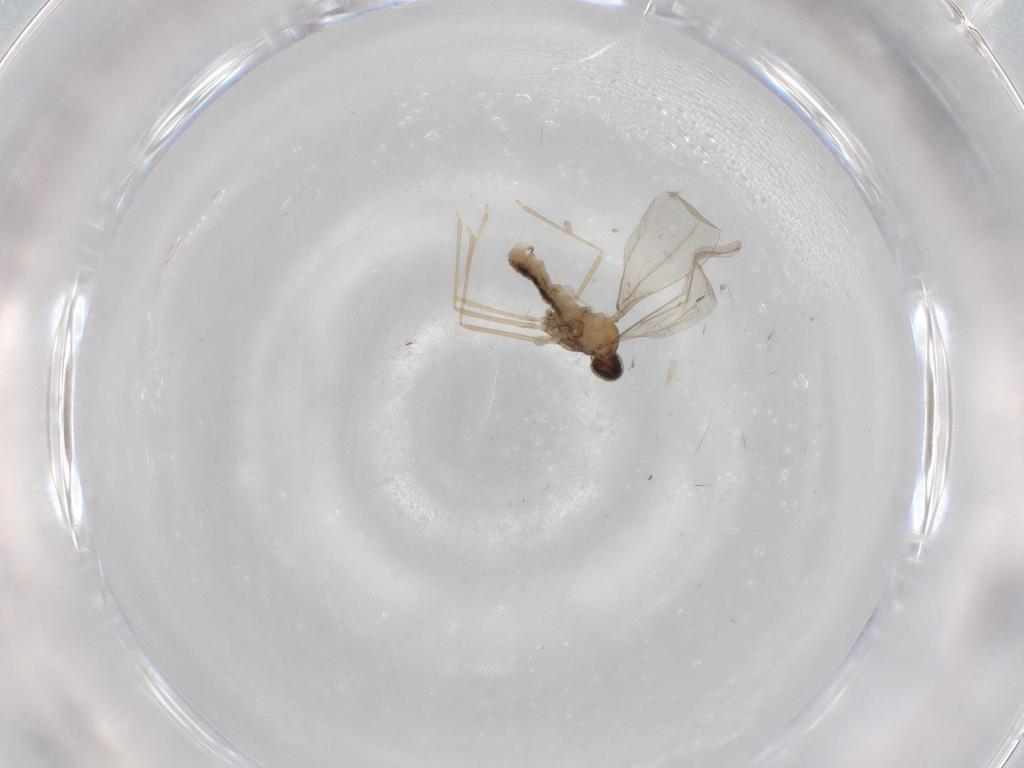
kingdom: Animalia
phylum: Arthropoda
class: Insecta
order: Diptera
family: Cecidomyiidae
